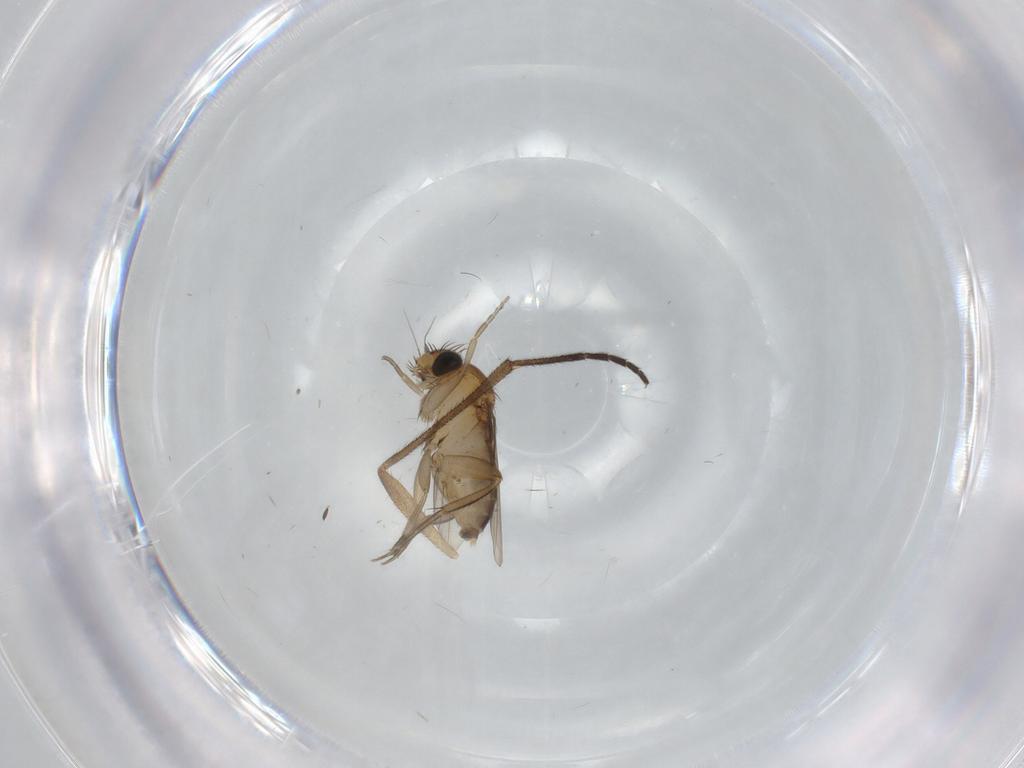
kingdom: Animalia
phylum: Arthropoda
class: Insecta
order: Diptera
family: Phoridae
